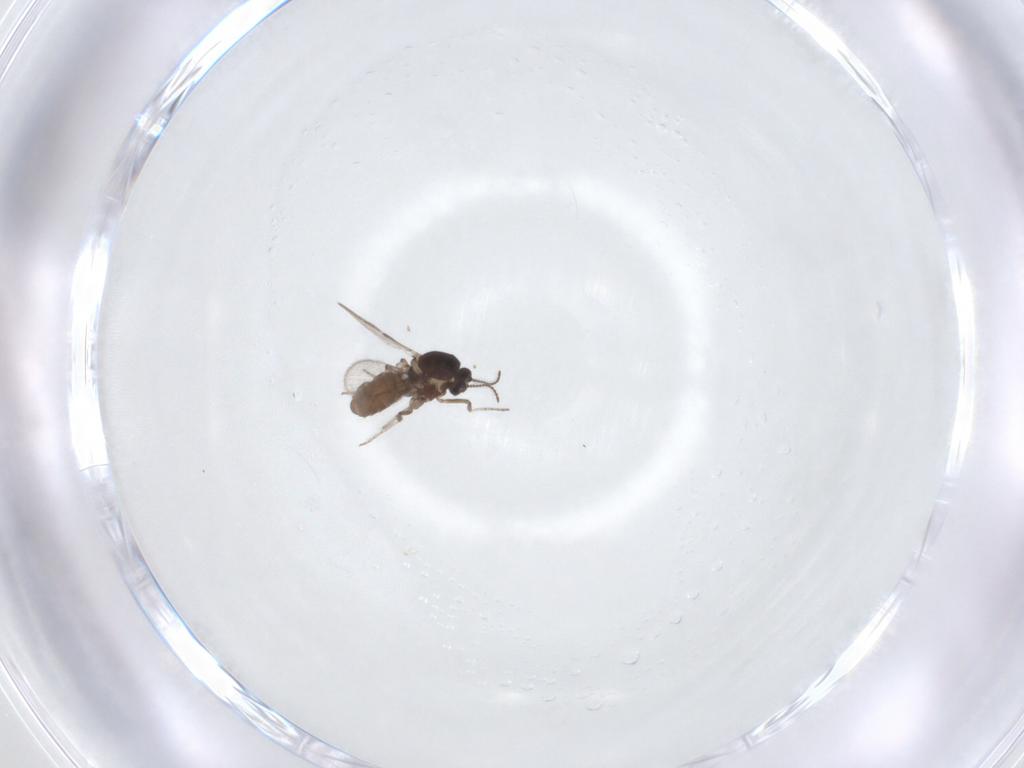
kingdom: Animalia
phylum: Arthropoda
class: Insecta
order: Diptera
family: Ceratopogonidae
